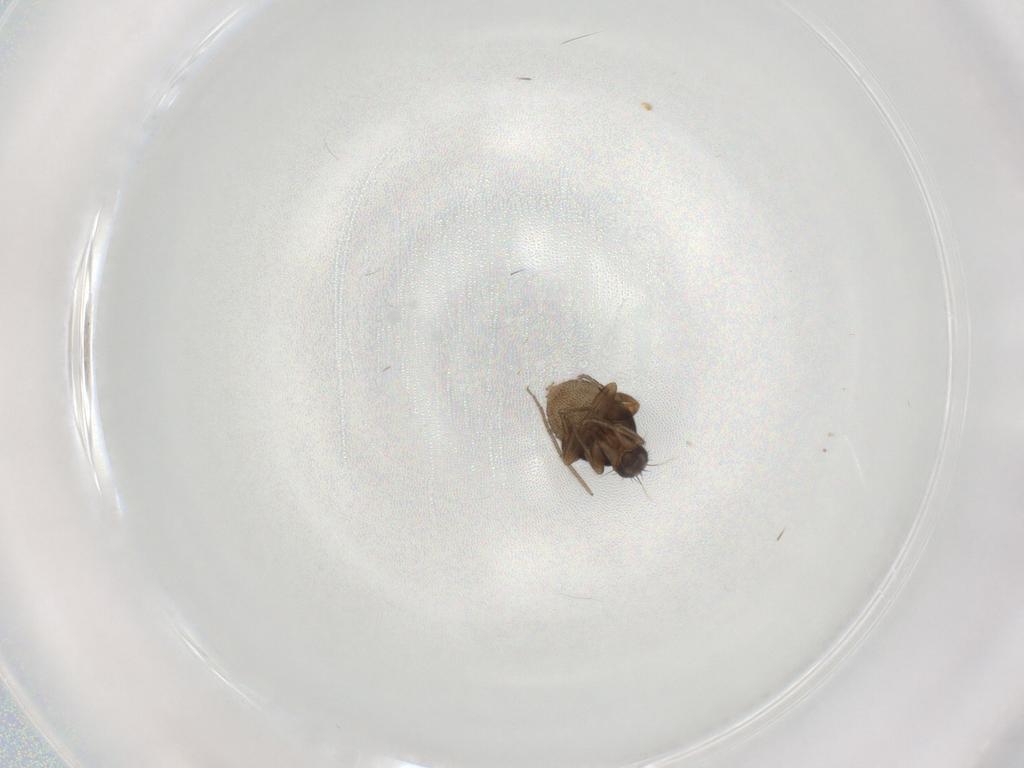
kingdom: Animalia
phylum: Arthropoda
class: Insecta
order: Diptera
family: Phoridae
